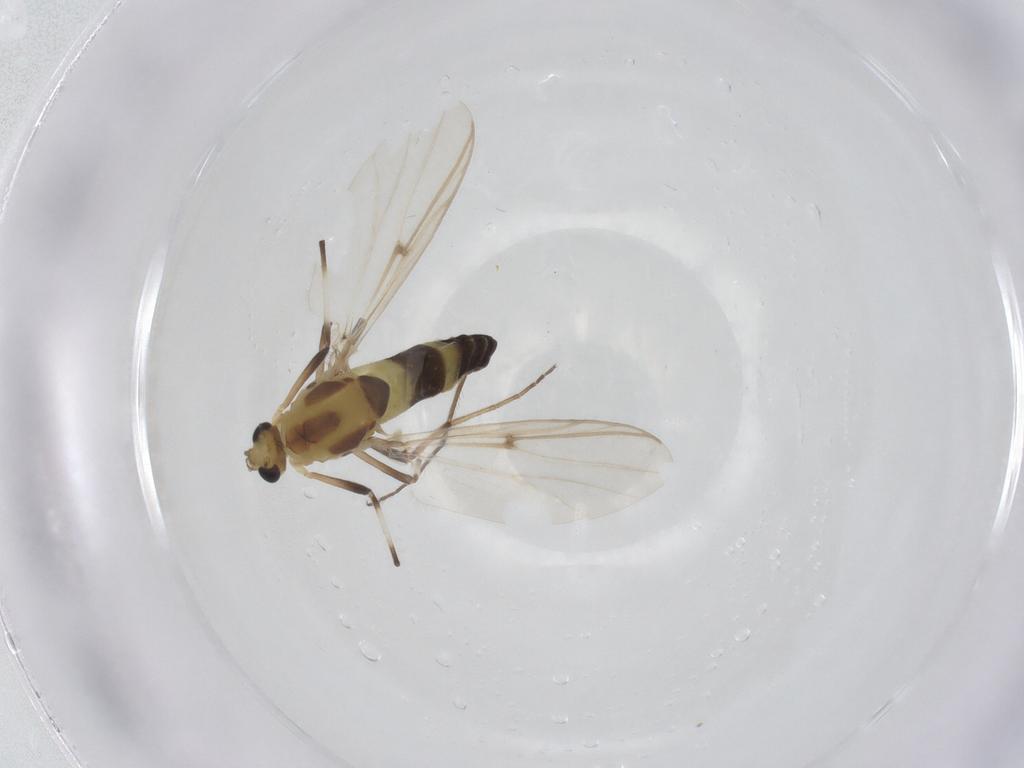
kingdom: Animalia
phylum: Arthropoda
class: Insecta
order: Diptera
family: Sciaridae
